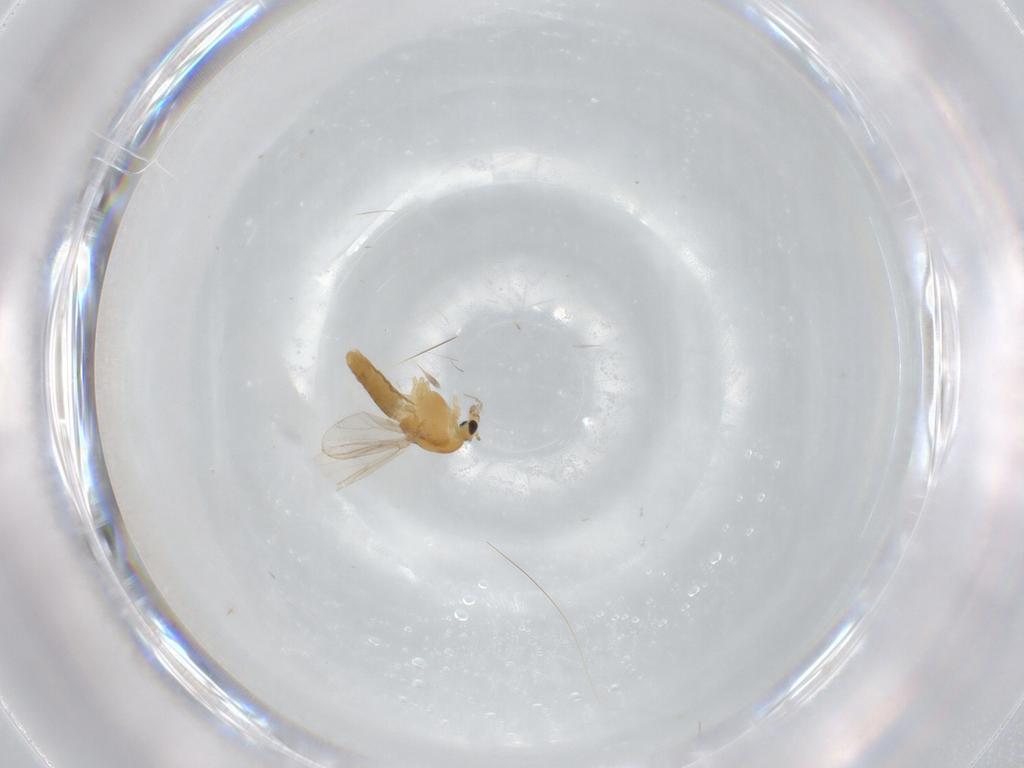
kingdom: Animalia
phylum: Arthropoda
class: Insecta
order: Diptera
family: Chironomidae
